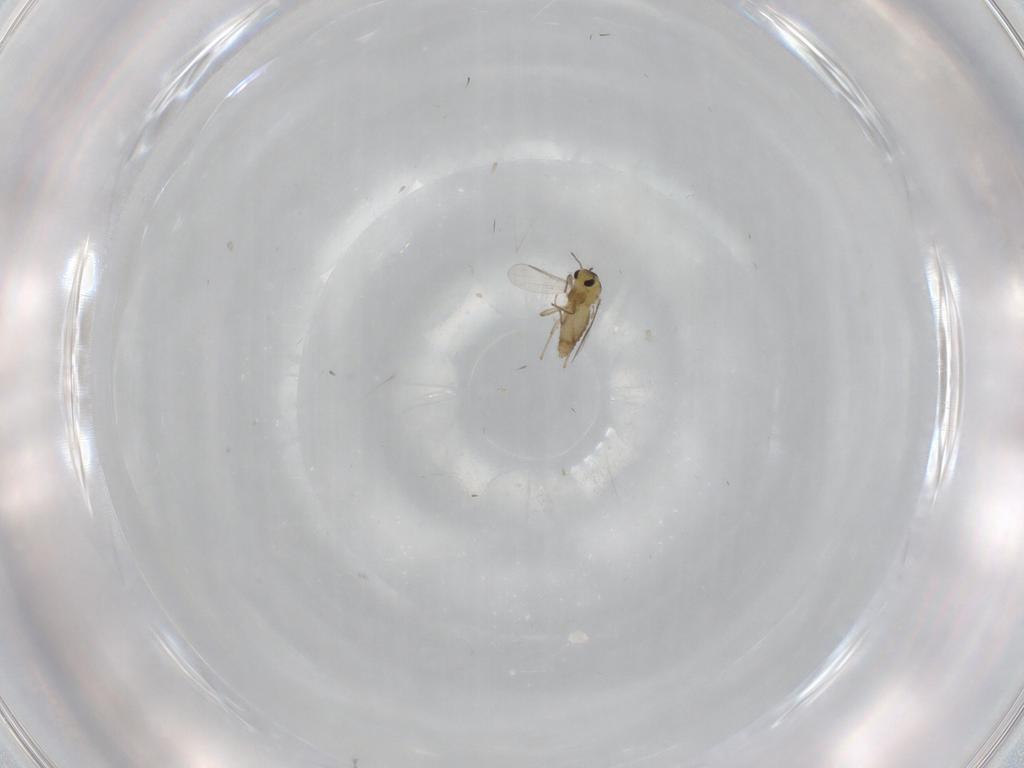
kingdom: Animalia
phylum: Arthropoda
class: Insecta
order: Diptera
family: Chironomidae
